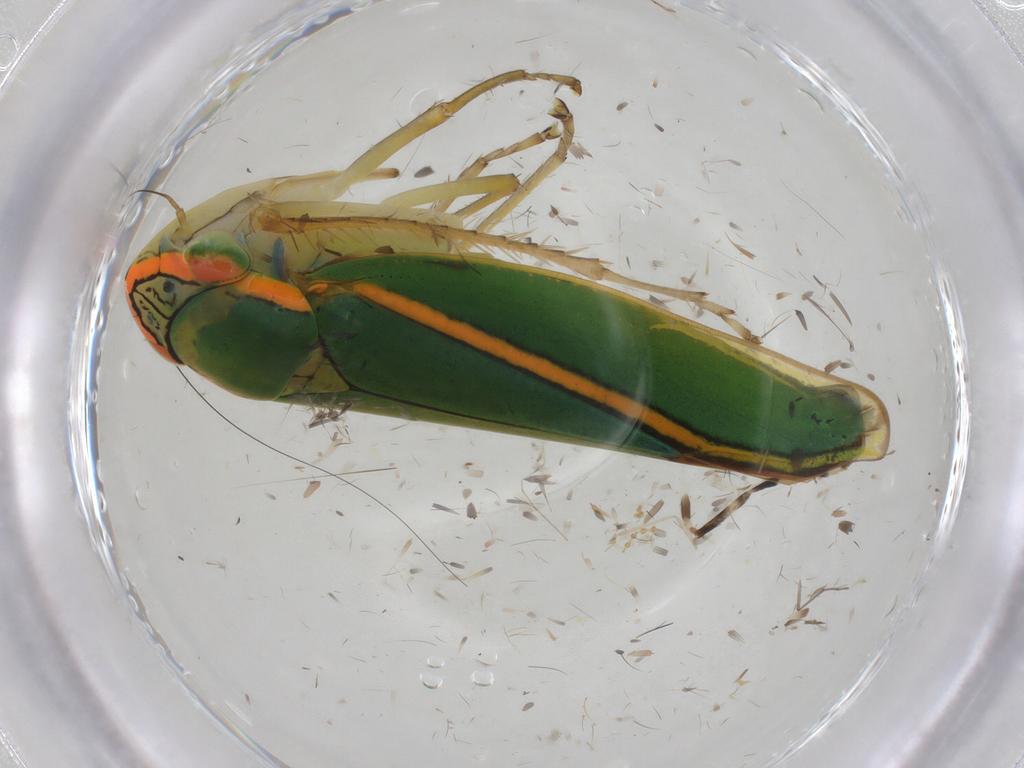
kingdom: Animalia
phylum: Arthropoda
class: Insecta
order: Hemiptera
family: Cicadellidae
